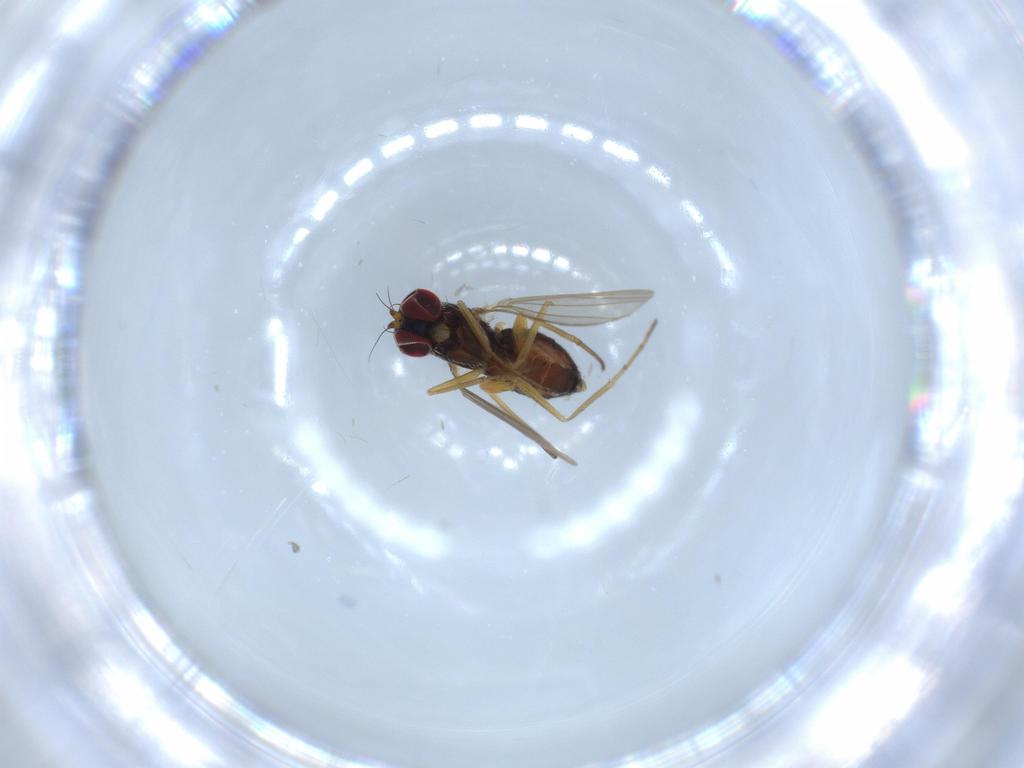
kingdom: Animalia
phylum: Arthropoda
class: Insecta
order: Diptera
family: Dolichopodidae
